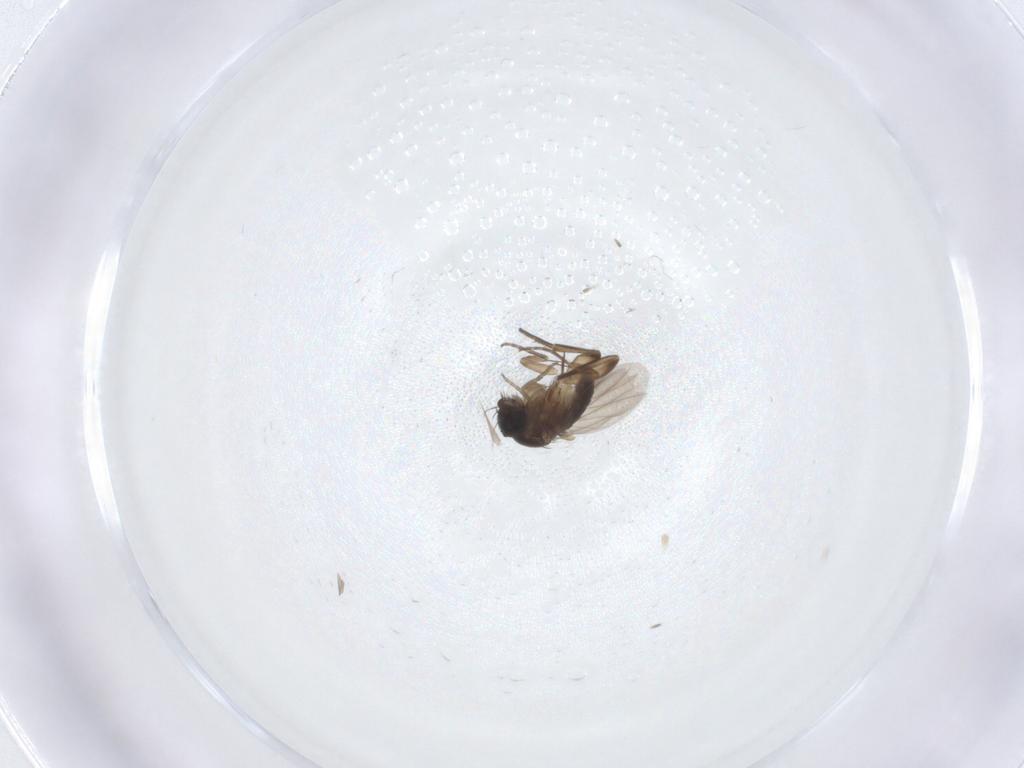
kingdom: Animalia
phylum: Arthropoda
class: Insecta
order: Diptera
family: Phoridae
